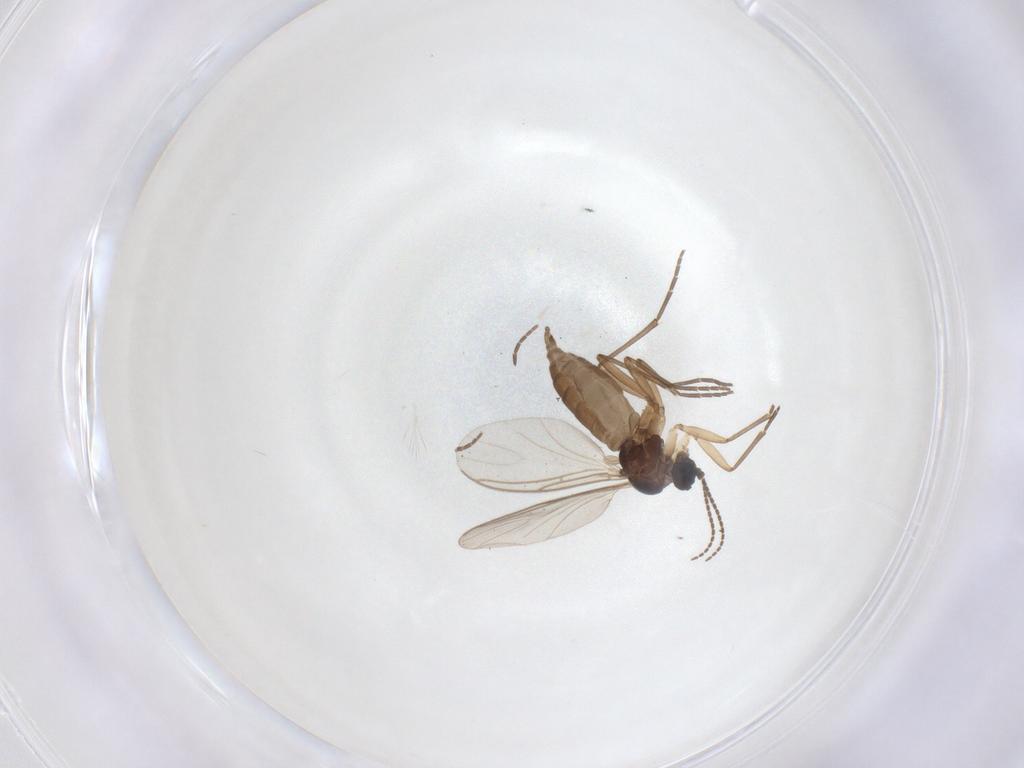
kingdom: Animalia
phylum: Arthropoda
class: Insecta
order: Diptera
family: Sciaridae
